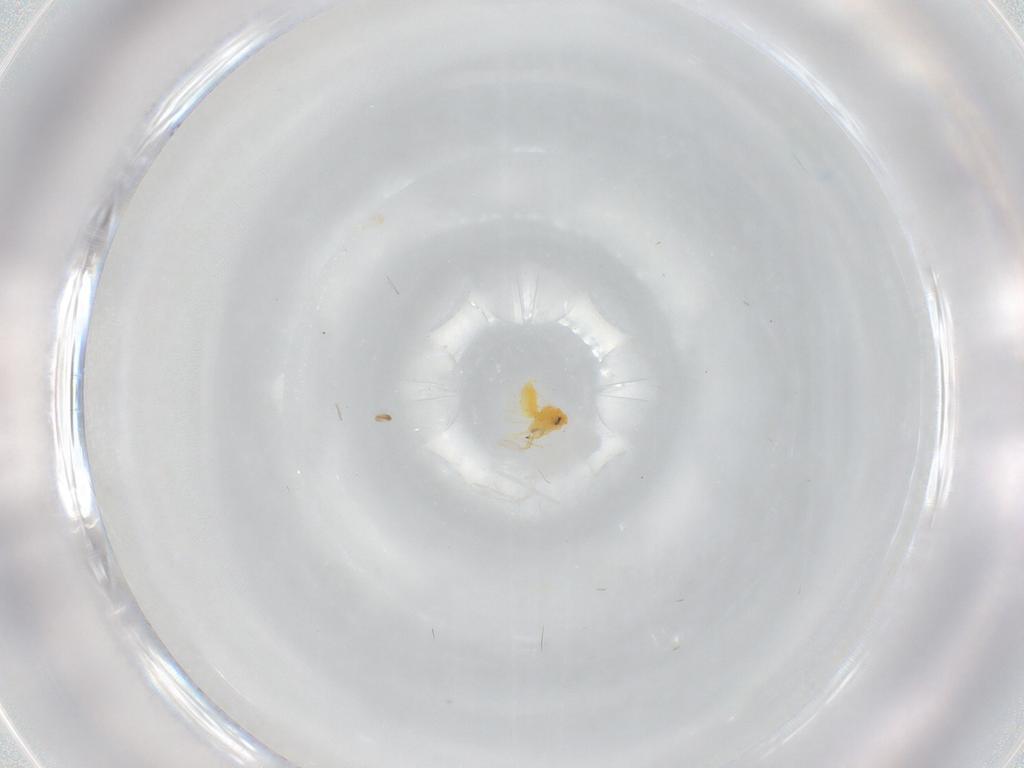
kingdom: Animalia
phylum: Arthropoda
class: Insecta
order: Hemiptera
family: Aleyrodidae
